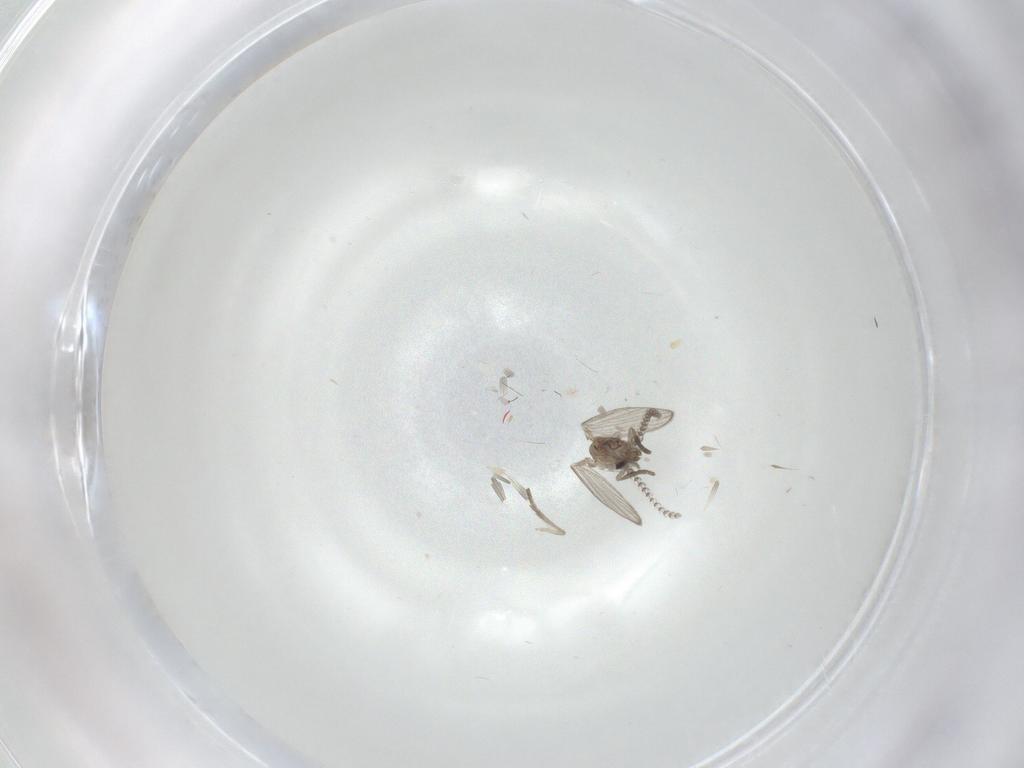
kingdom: Animalia
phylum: Arthropoda
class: Insecta
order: Diptera
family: Psychodidae
